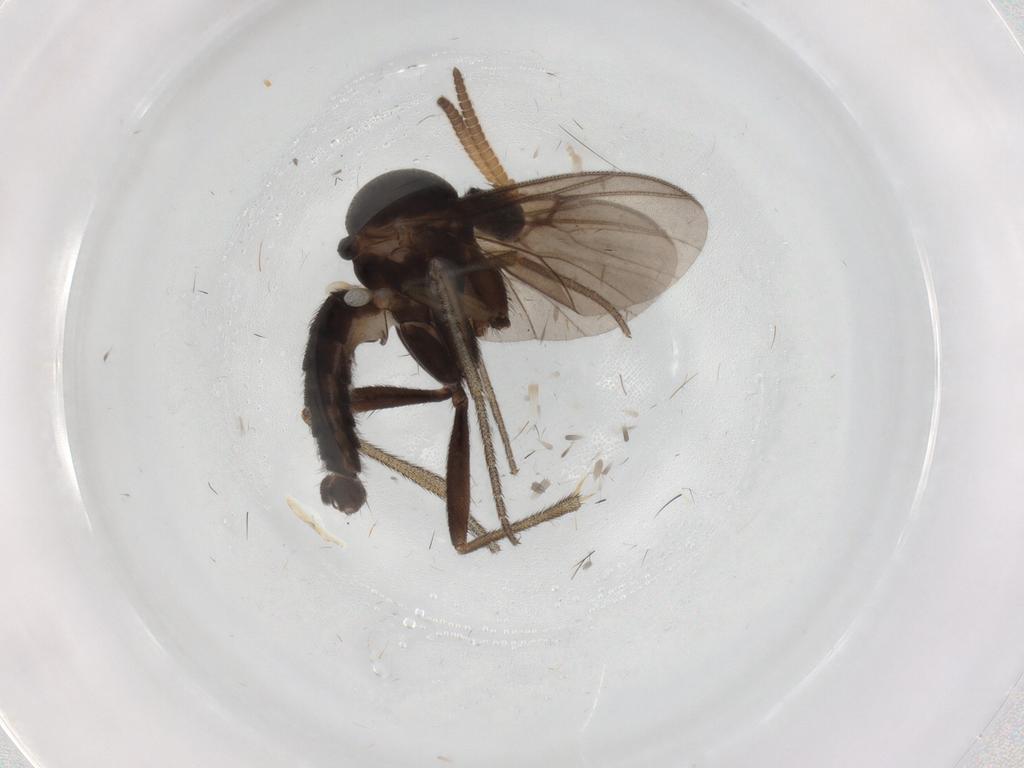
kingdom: Animalia
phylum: Arthropoda
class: Insecta
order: Diptera
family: Mycetophilidae
